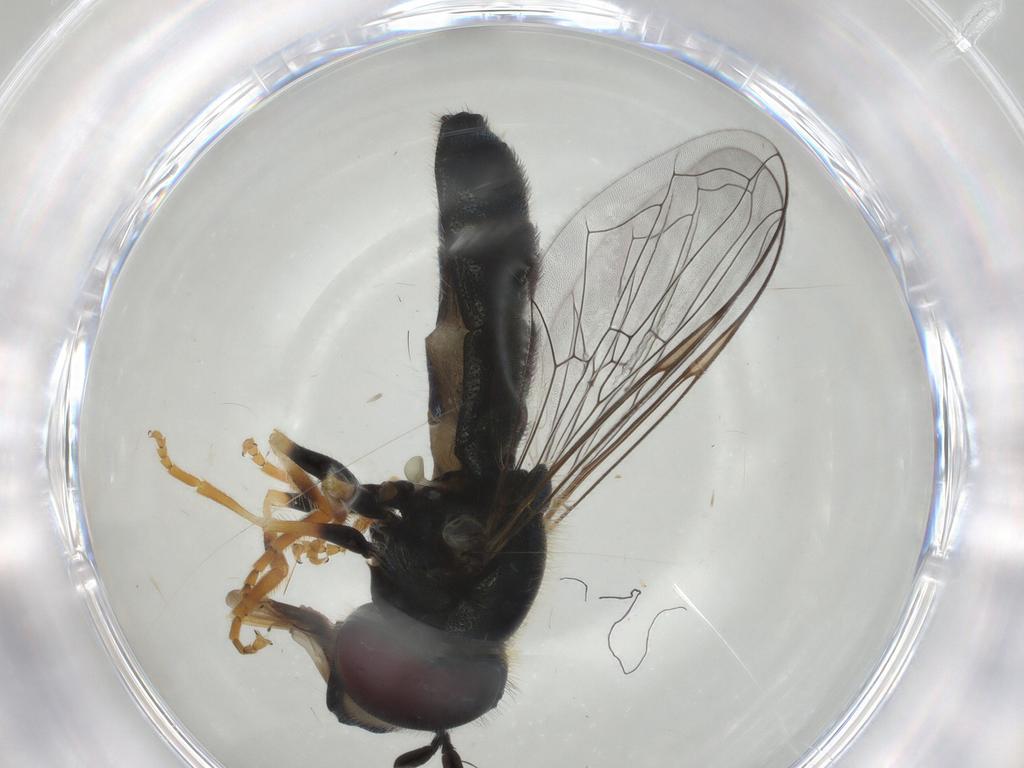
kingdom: Animalia
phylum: Arthropoda
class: Insecta
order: Diptera
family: Syrphidae
